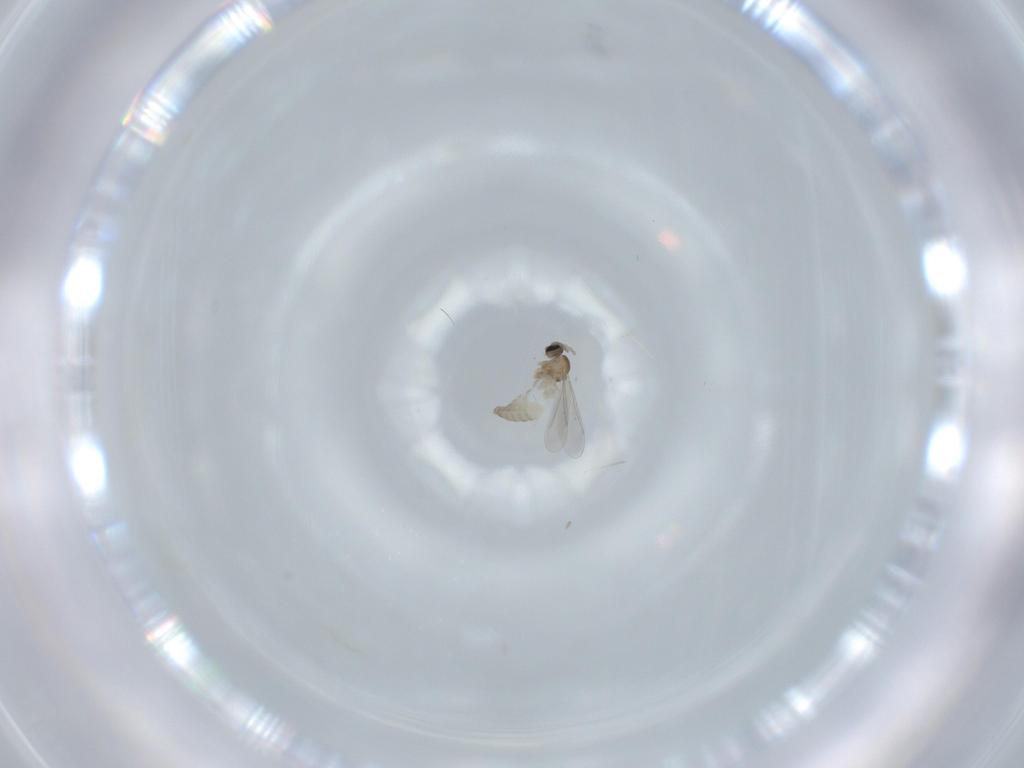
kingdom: Animalia
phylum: Arthropoda
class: Insecta
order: Diptera
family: Cecidomyiidae
